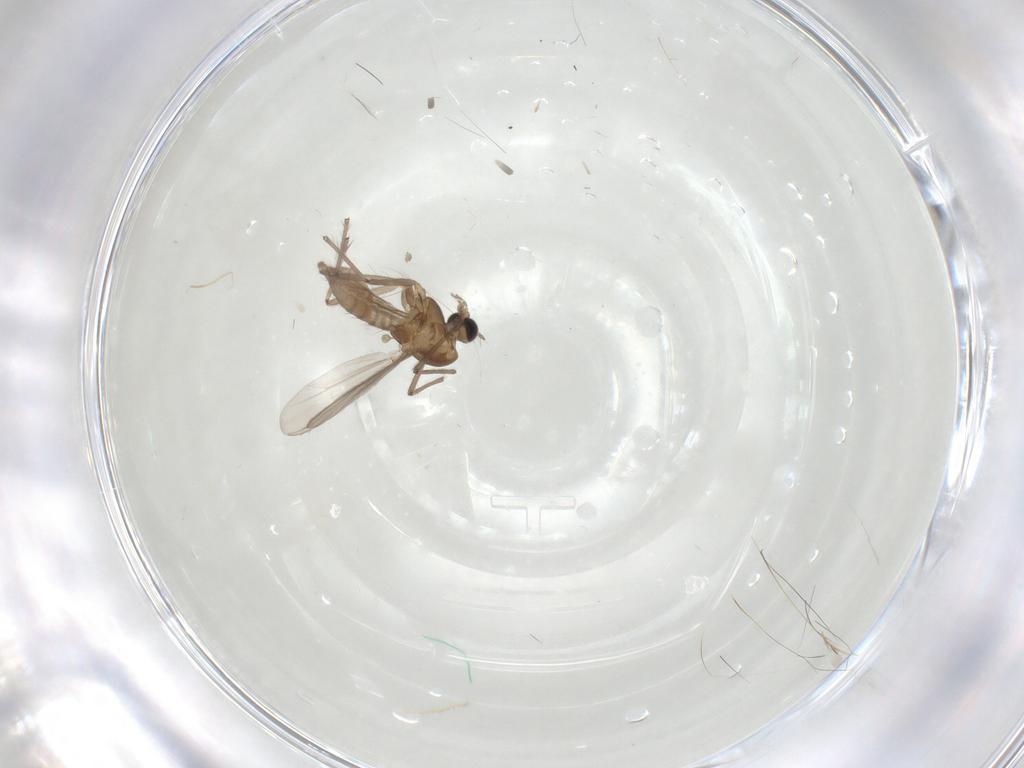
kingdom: Animalia
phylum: Arthropoda
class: Insecta
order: Diptera
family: Chironomidae
